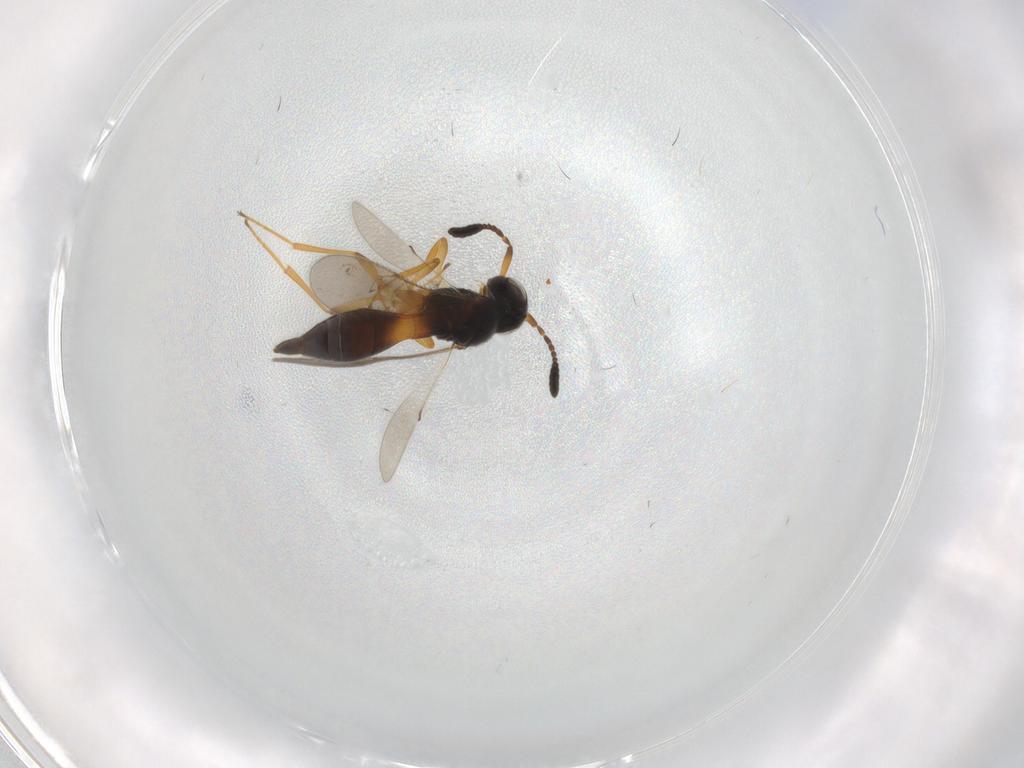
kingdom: Animalia
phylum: Arthropoda
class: Insecta
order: Hymenoptera
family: Scelionidae
